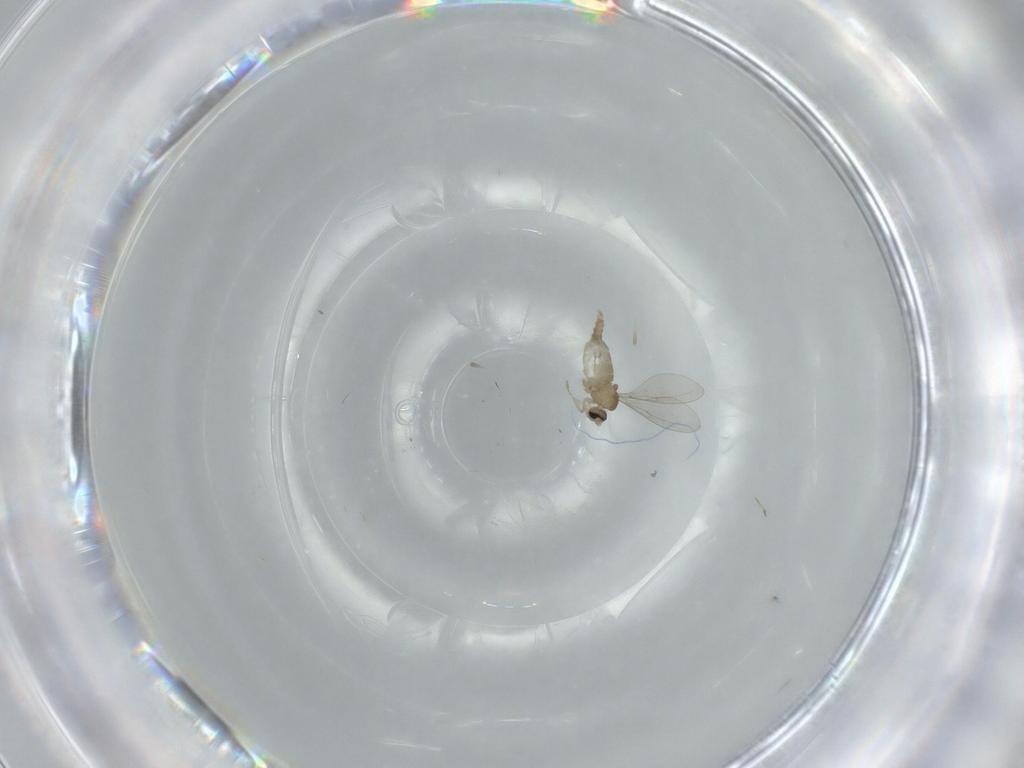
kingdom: Animalia
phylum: Arthropoda
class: Insecta
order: Diptera
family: Cecidomyiidae
